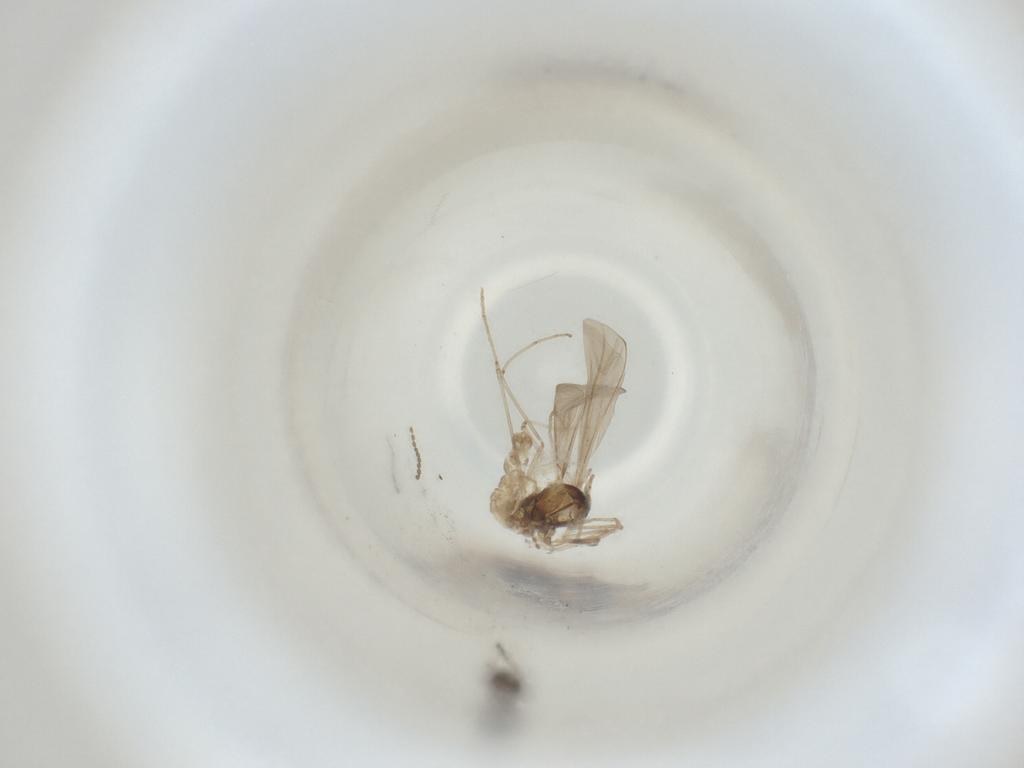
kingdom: Animalia
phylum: Arthropoda
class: Insecta
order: Diptera
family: Cecidomyiidae
